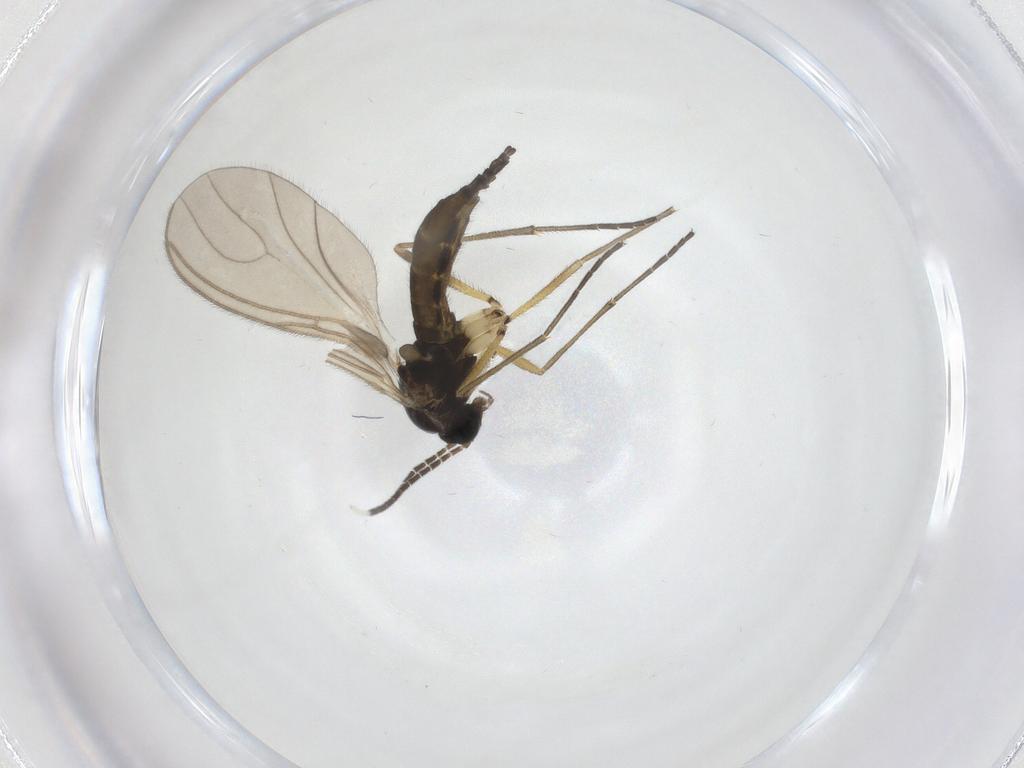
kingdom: Animalia
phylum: Arthropoda
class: Insecta
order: Diptera
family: Sciaridae
